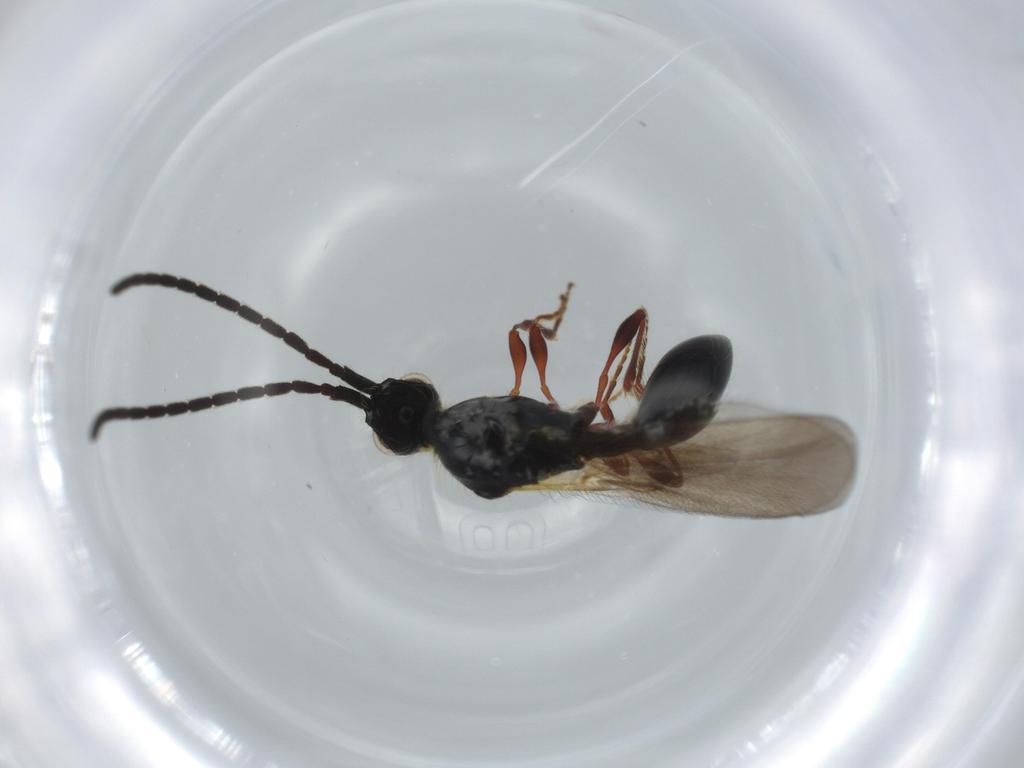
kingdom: Animalia
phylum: Arthropoda
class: Insecta
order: Hymenoptera
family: Diapriidae
